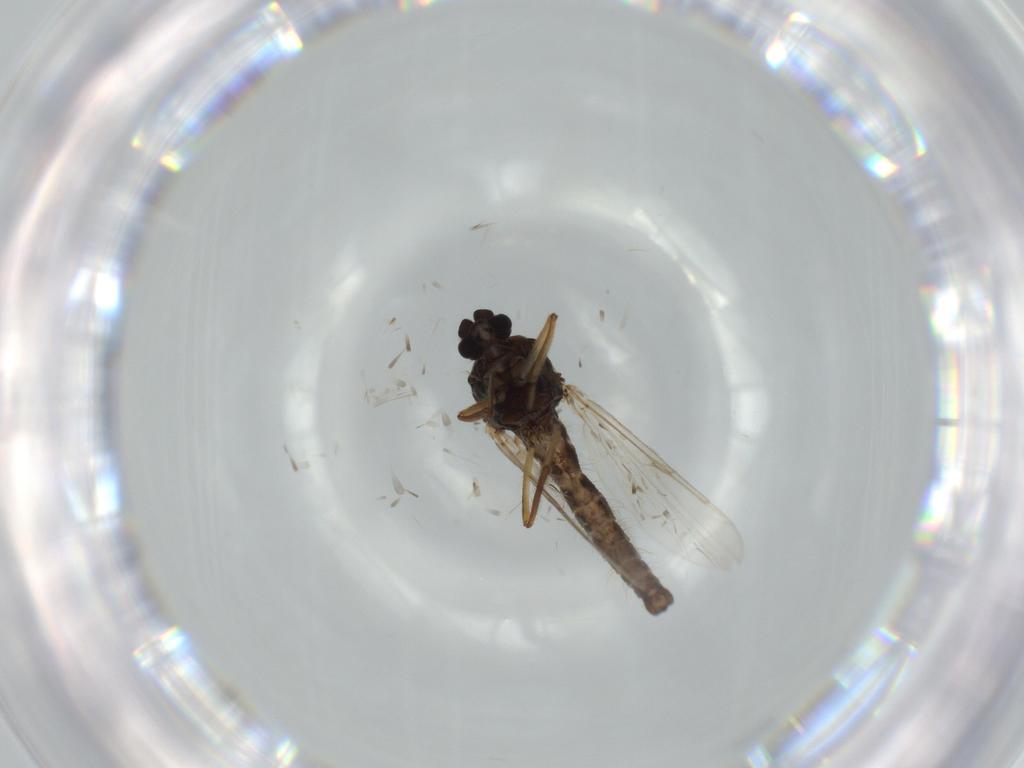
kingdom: Animalia
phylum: Arthropoda
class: Insecta
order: Diptera
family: Ceratopogonidae
